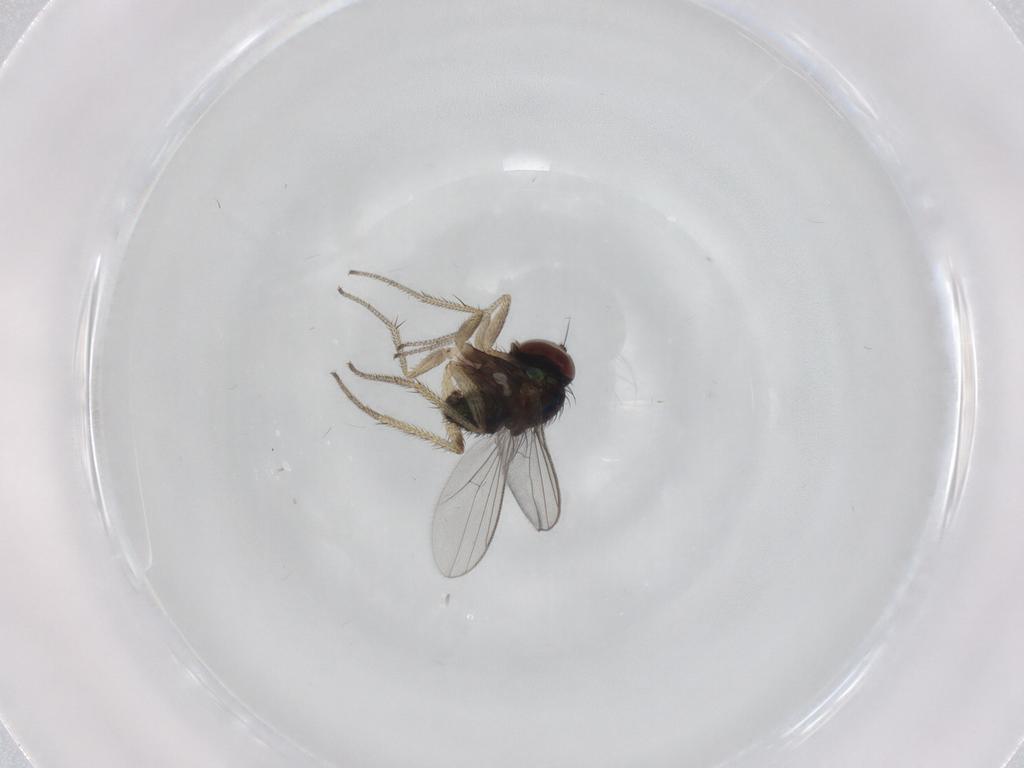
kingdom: Animalia
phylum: Arthropoda
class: Insecta
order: Diptera
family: Dolichopodidae
